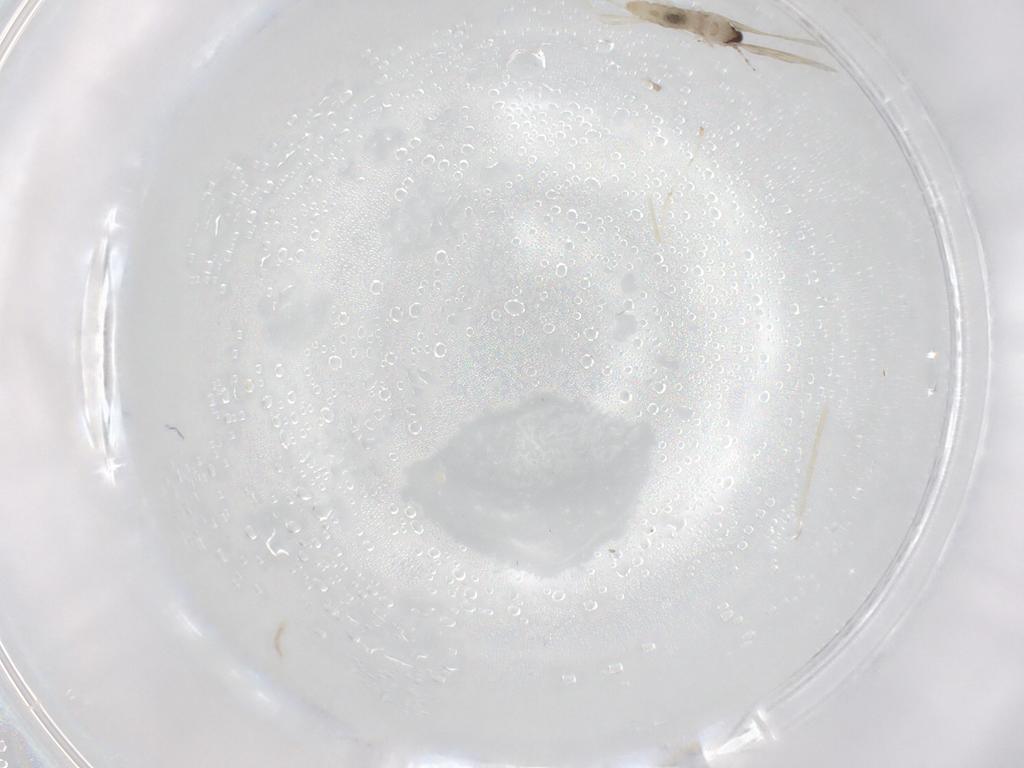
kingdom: Animalia
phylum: Arthropoda
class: Insecta
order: Diptera
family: Cecidomyiidae
